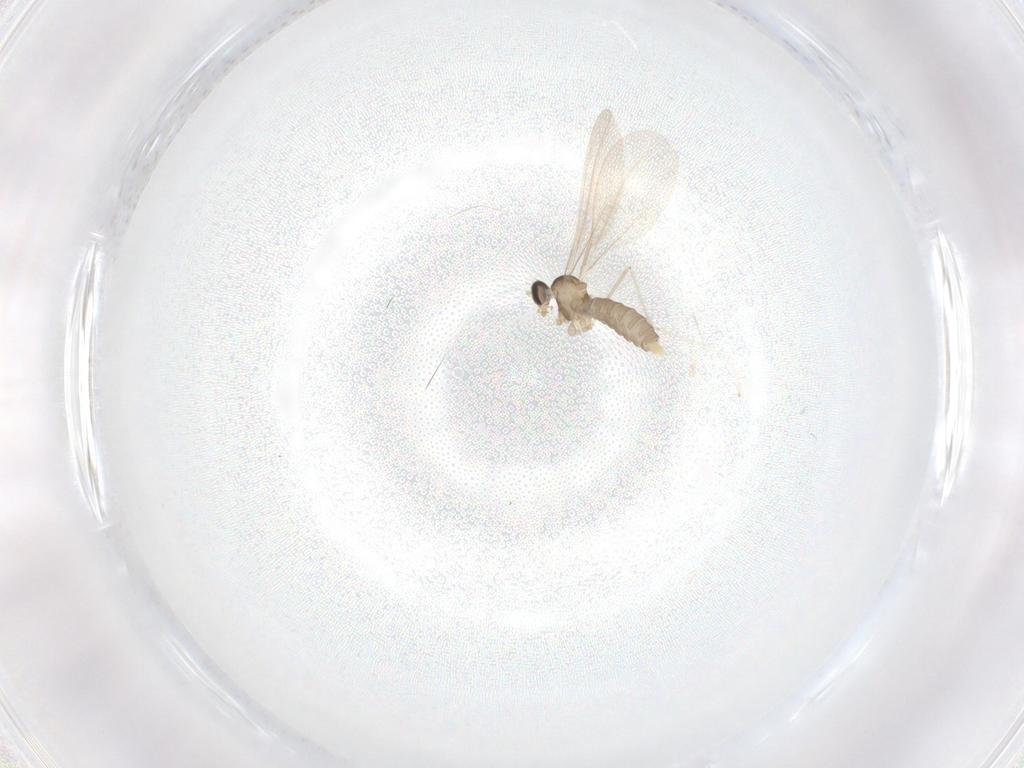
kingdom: Animalia
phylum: Arthropoda
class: Insecta
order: Diptera
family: Cecidomyiidae
